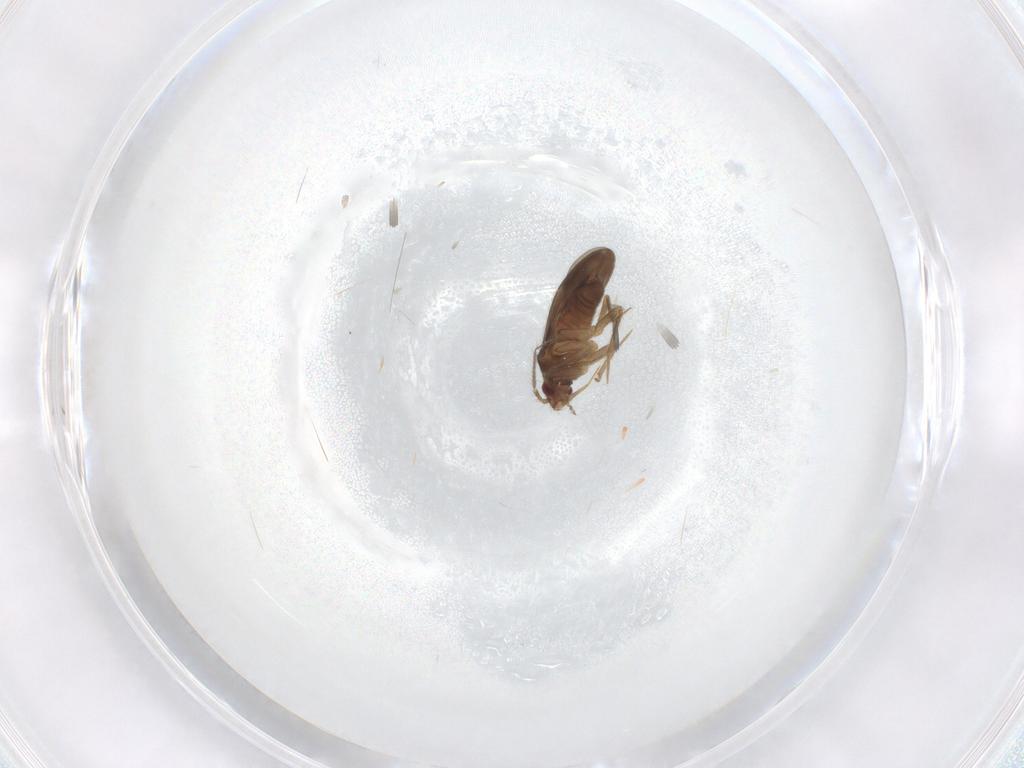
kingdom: Animalia
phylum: Arthropoda
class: Insecta
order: Hemiptera
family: Ceratocombidae
